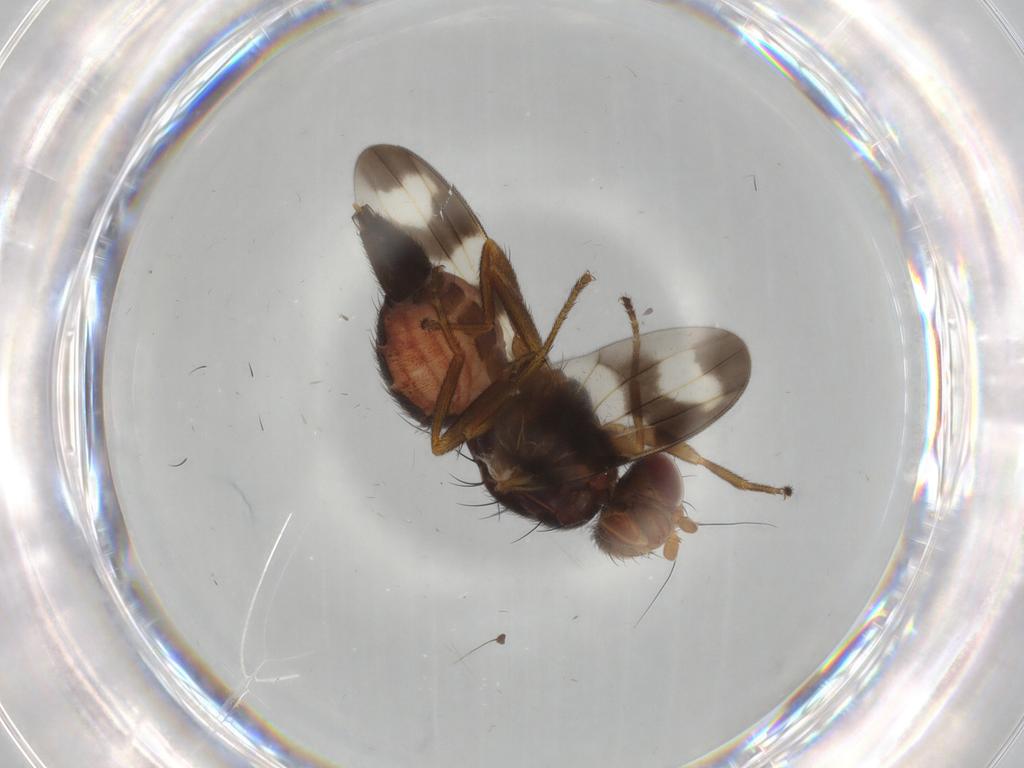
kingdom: Animalia
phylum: Arthropoda
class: Insecta
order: Diptera
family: Dolichopodidae
